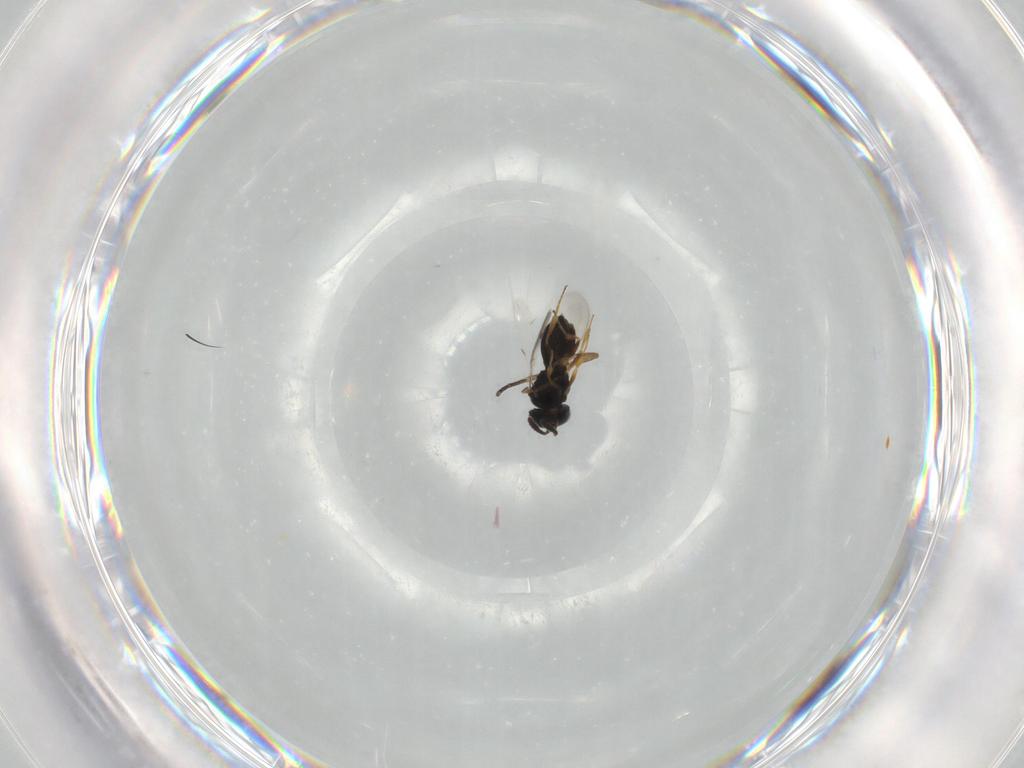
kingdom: Animalia
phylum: Arthropoda
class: Insecta
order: Hymenoptera
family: Scelionidae
